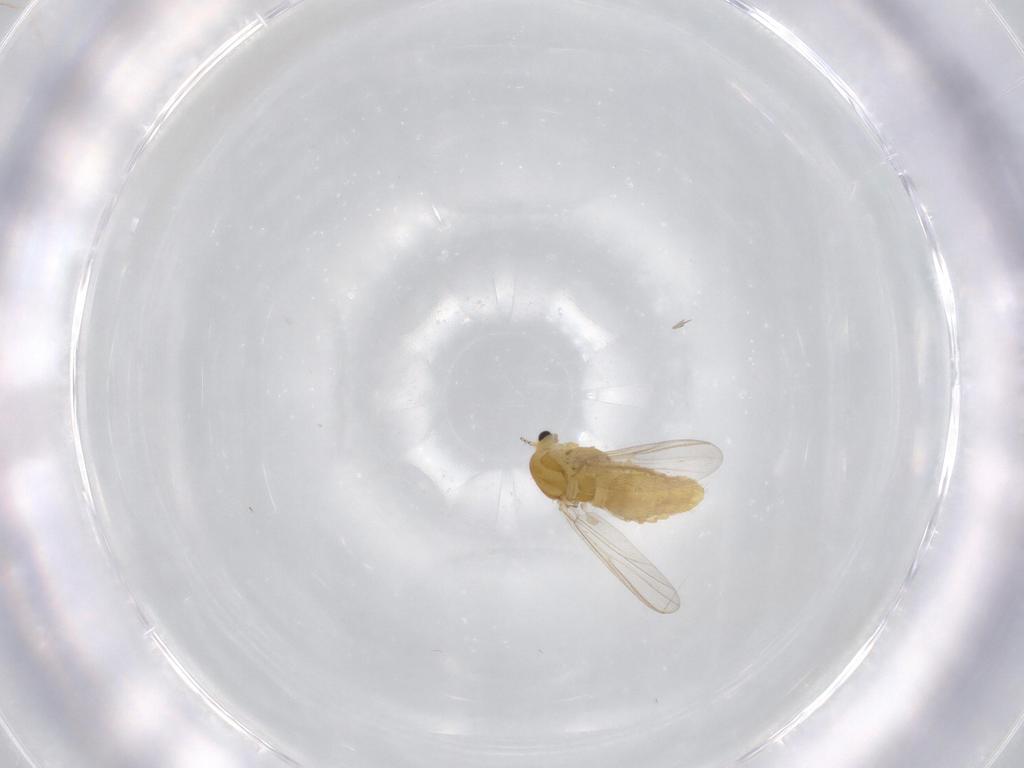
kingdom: Animalia
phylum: Arthropoda
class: Insecta
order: Diptera
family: Chironomidae
